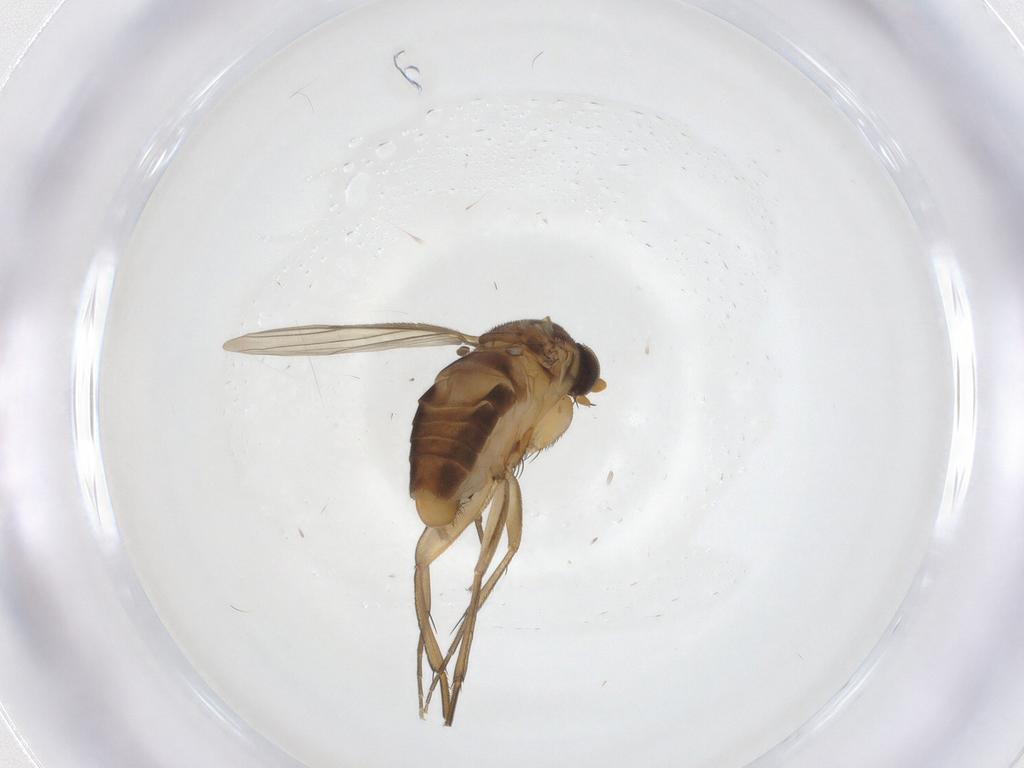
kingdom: Animalia
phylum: Arthropoda
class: Insecta
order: Diptera
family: Phoridae
